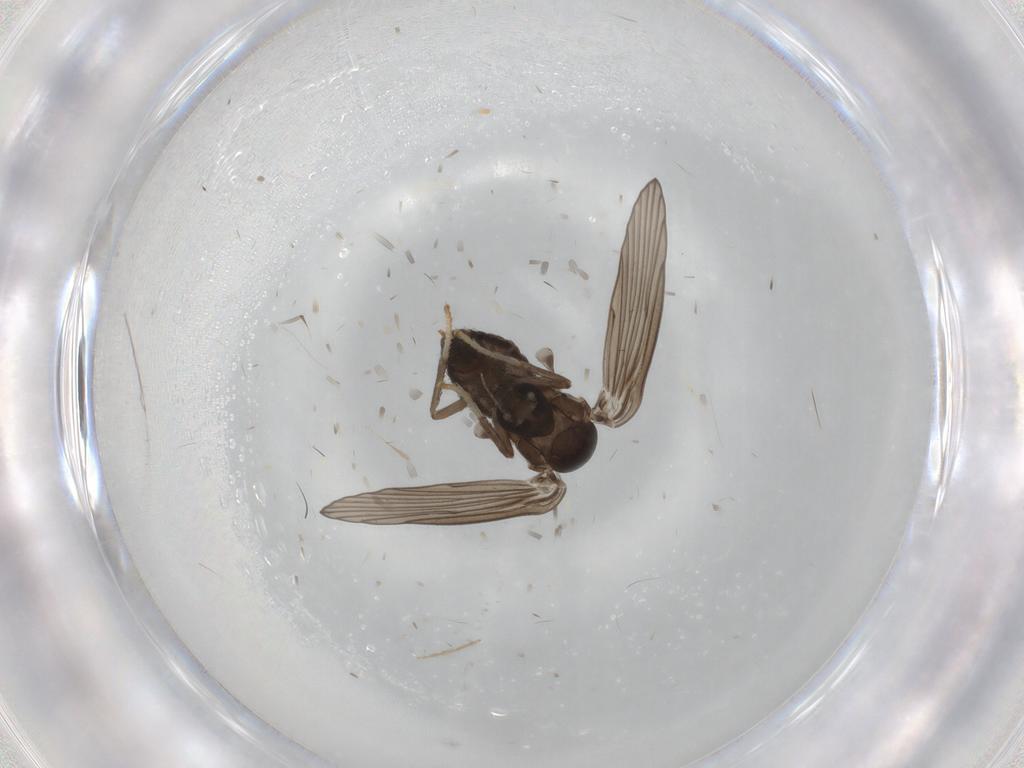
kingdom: Animalia
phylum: Arthropoda
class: Insecta
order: Diptera
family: Psychodidae
